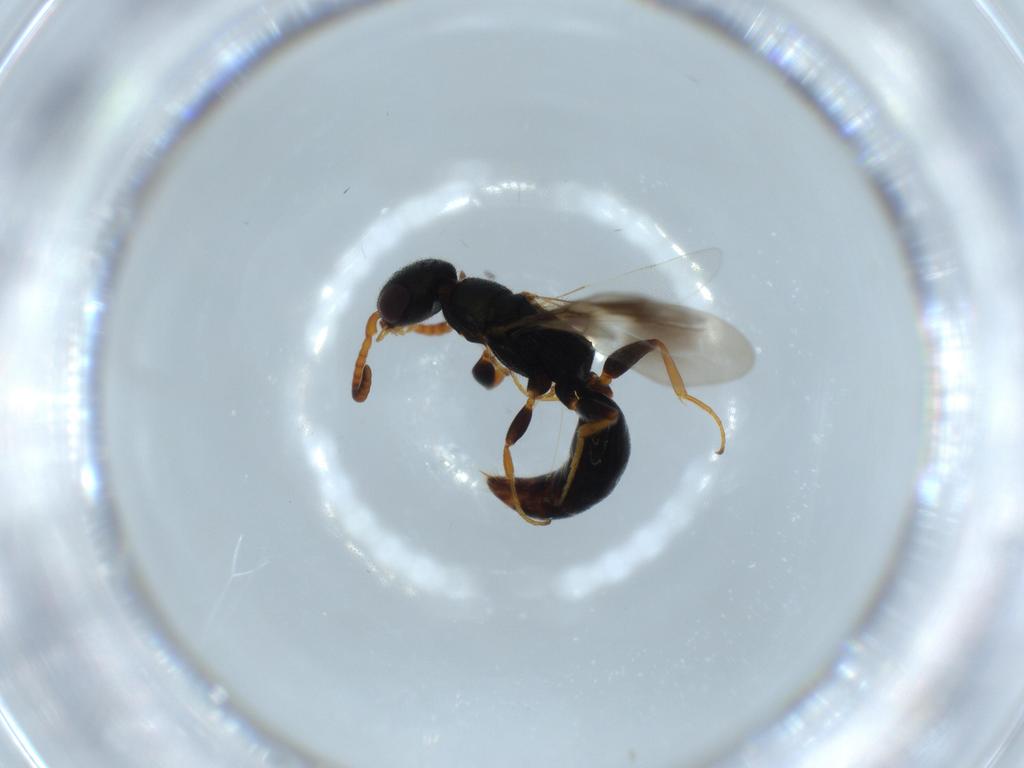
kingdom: Animalia
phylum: Arthropoda
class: Insecta
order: Hymenoptera
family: Bethylidae
